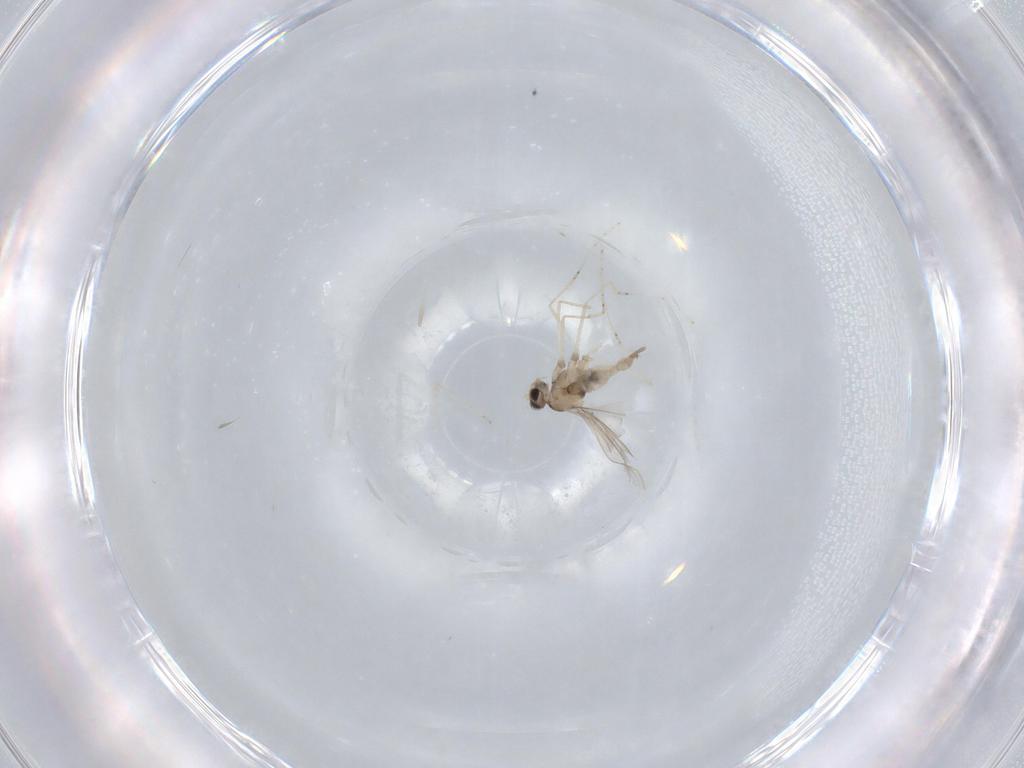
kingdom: Animalia
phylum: Arthropoda
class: Insecta
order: Diptera
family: Cecidomyiidae
